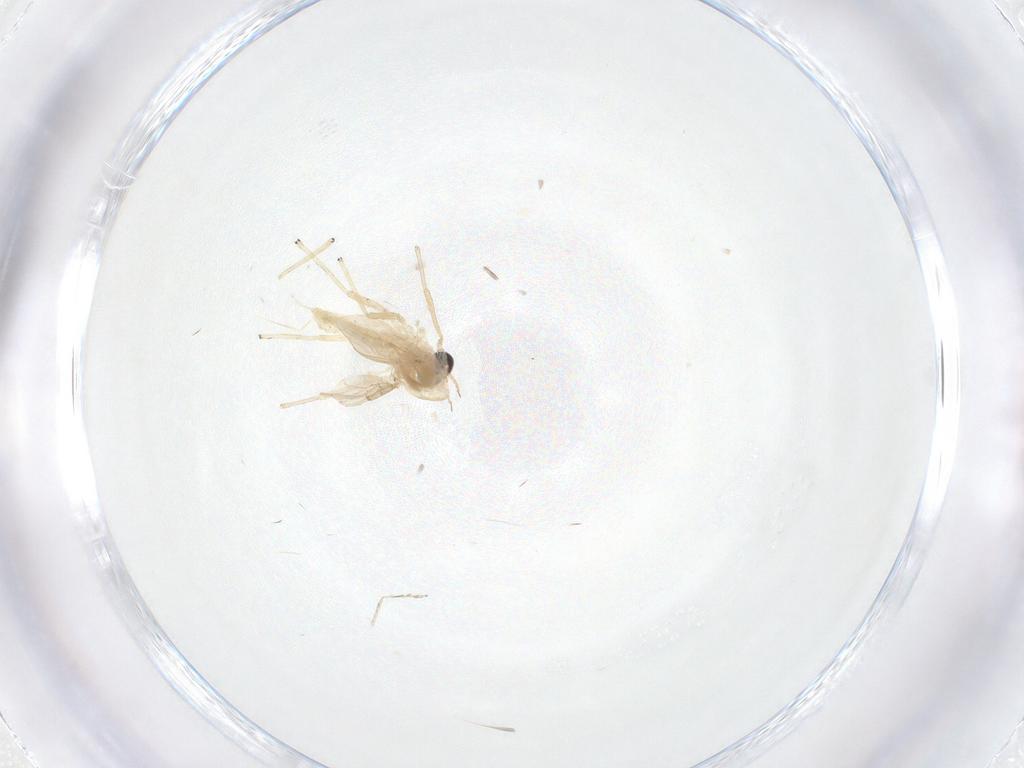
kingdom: Animalia
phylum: Arthropoda
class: Insecta
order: Diptera
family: Chironomidae
